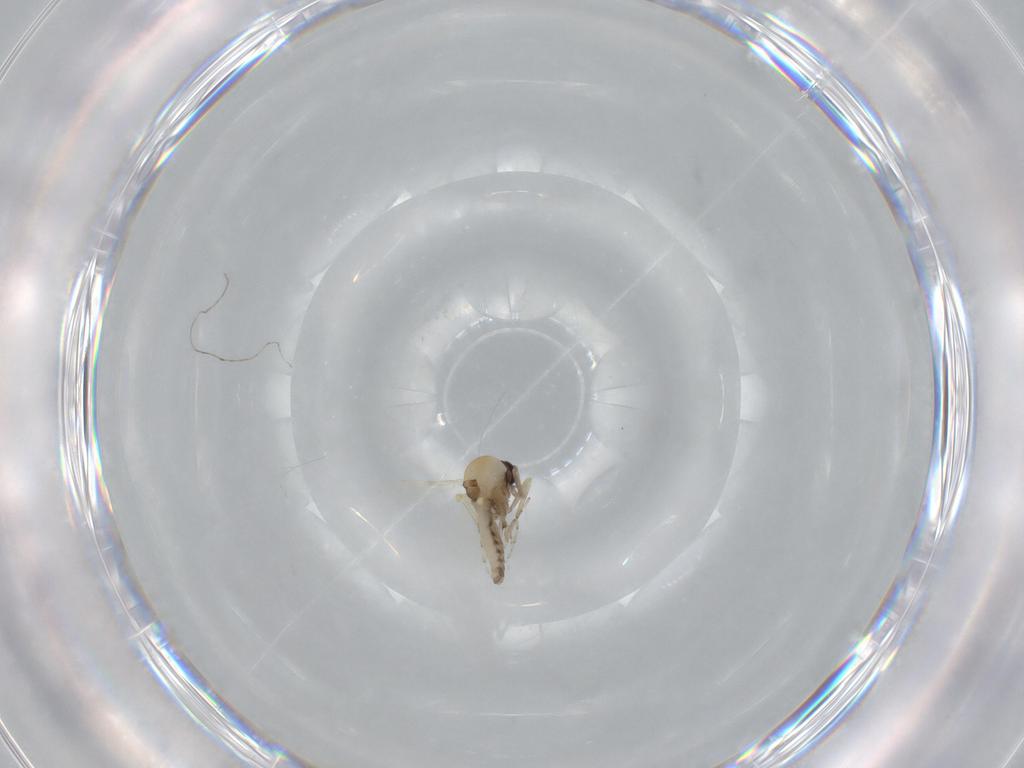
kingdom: Animalia
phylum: Arthropoda
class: Insecta
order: Diptera
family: Ceratopogonidae
